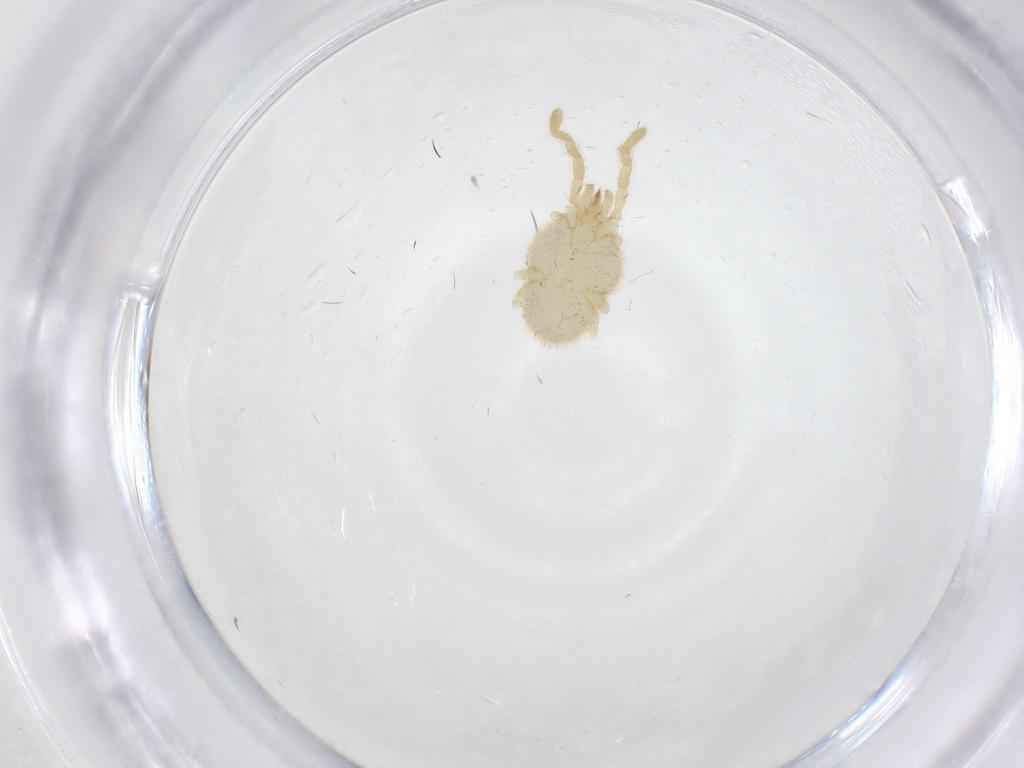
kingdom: Animalia
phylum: Arthropoda
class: Arachnida
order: Trombidiformes
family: Erythraeidae
